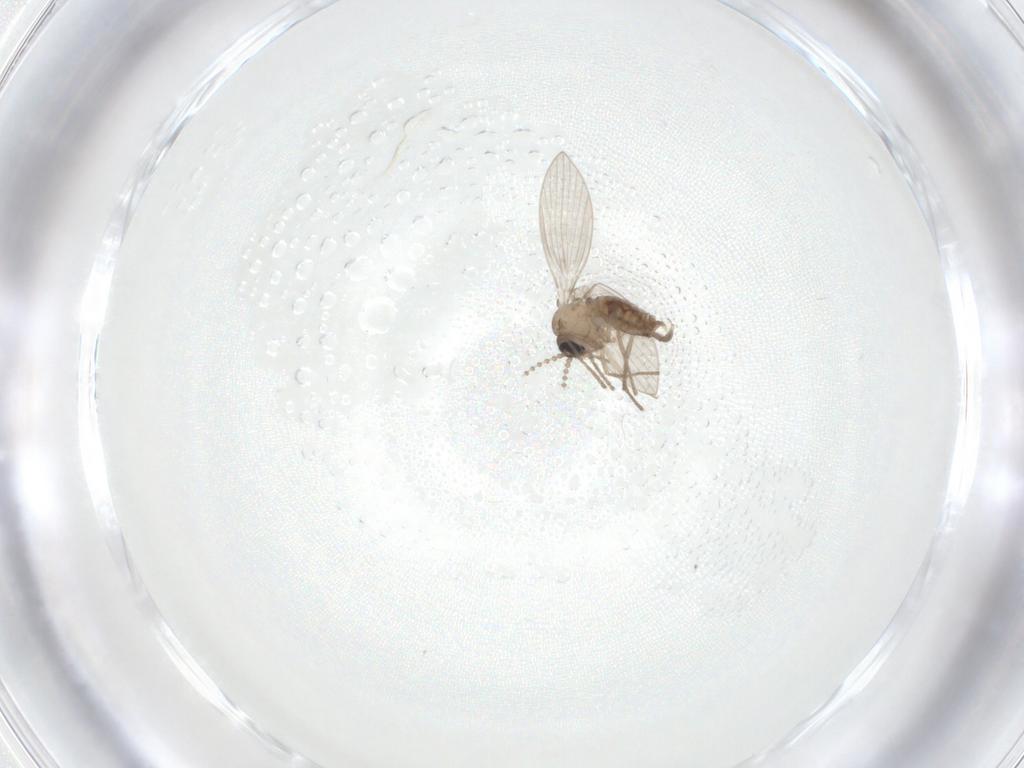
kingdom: Animalia
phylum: Arthropoda
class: Insecta
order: Diptera
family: Psychodidae
